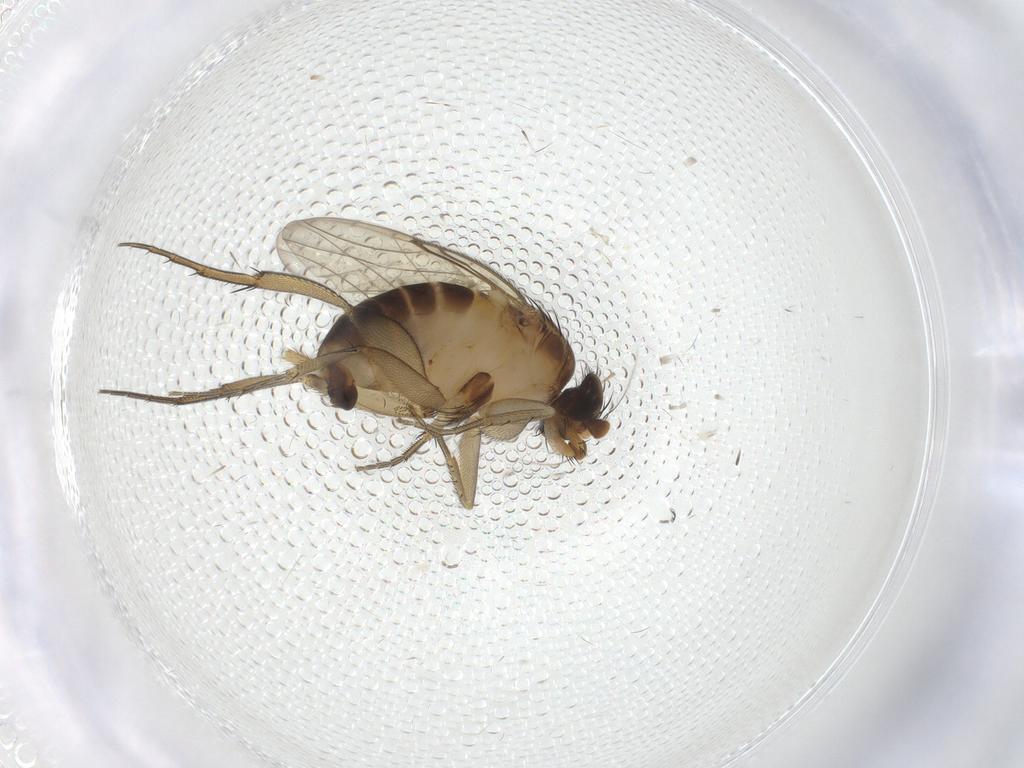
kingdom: Animalia
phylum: Arthropoda
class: Insecta
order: Diptera
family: Phoridae
